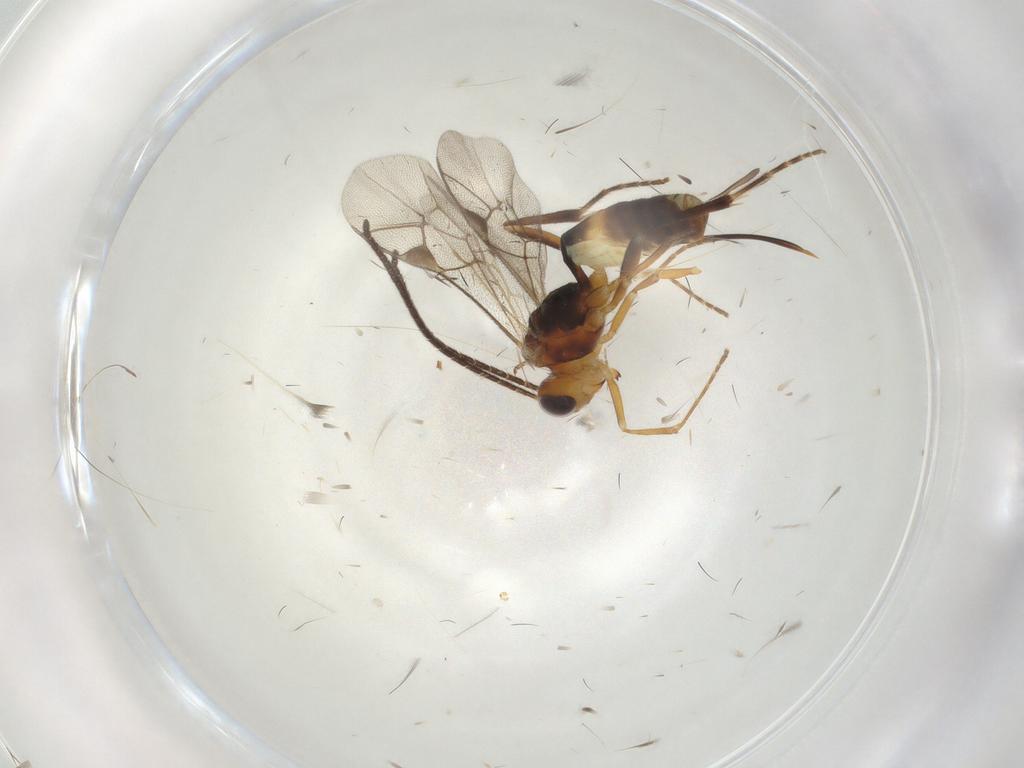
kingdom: Animalia
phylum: Arthropoda
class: Insecta
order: Hymenoptera
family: Ichneumonidae
